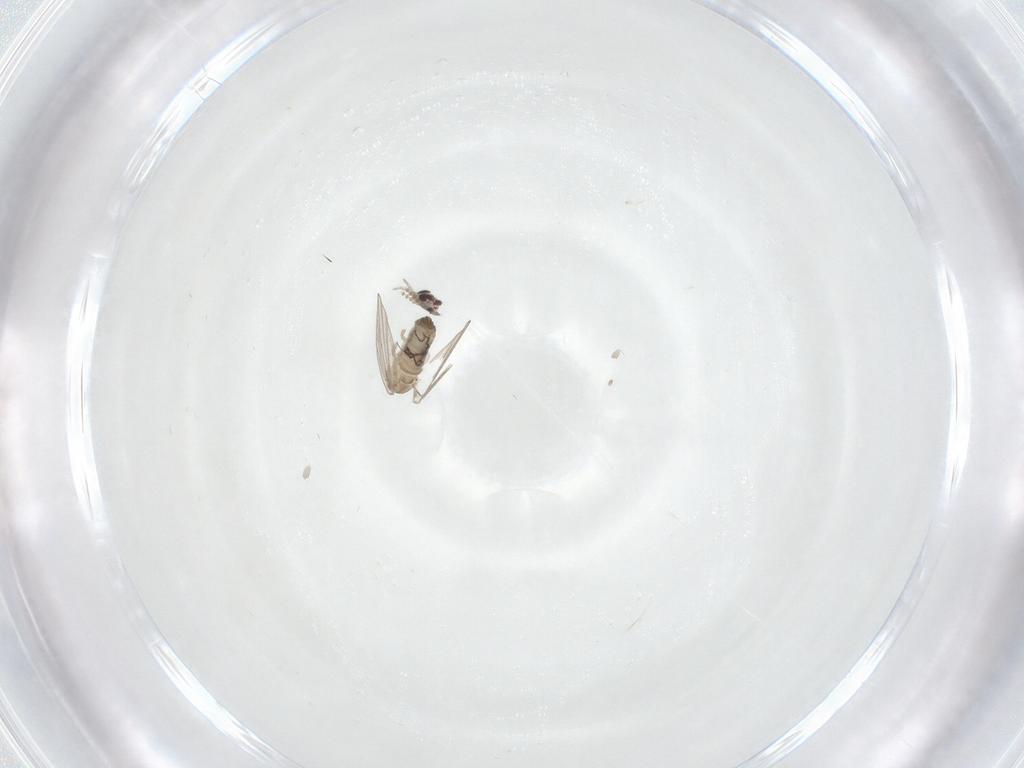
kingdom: Animalia
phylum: Arthropoda
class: Insecta
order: Diptera
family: Psychodidae
